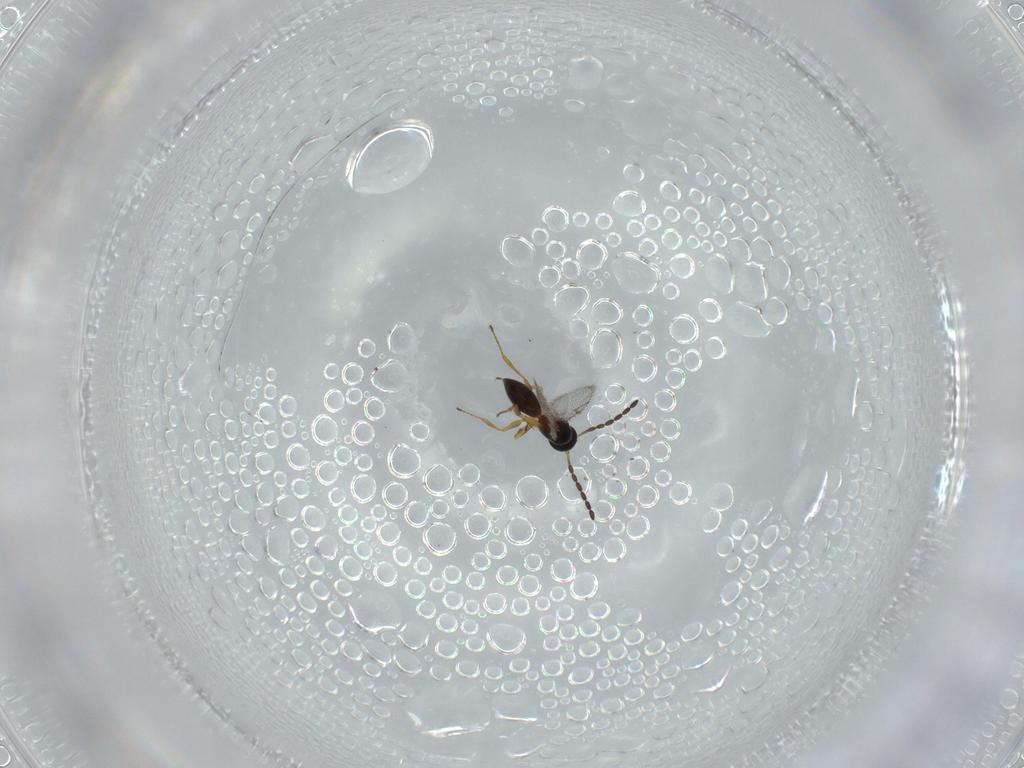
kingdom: Animalia
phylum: Arthropoda
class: Insecta
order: Hymenoptera
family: Figitidae
